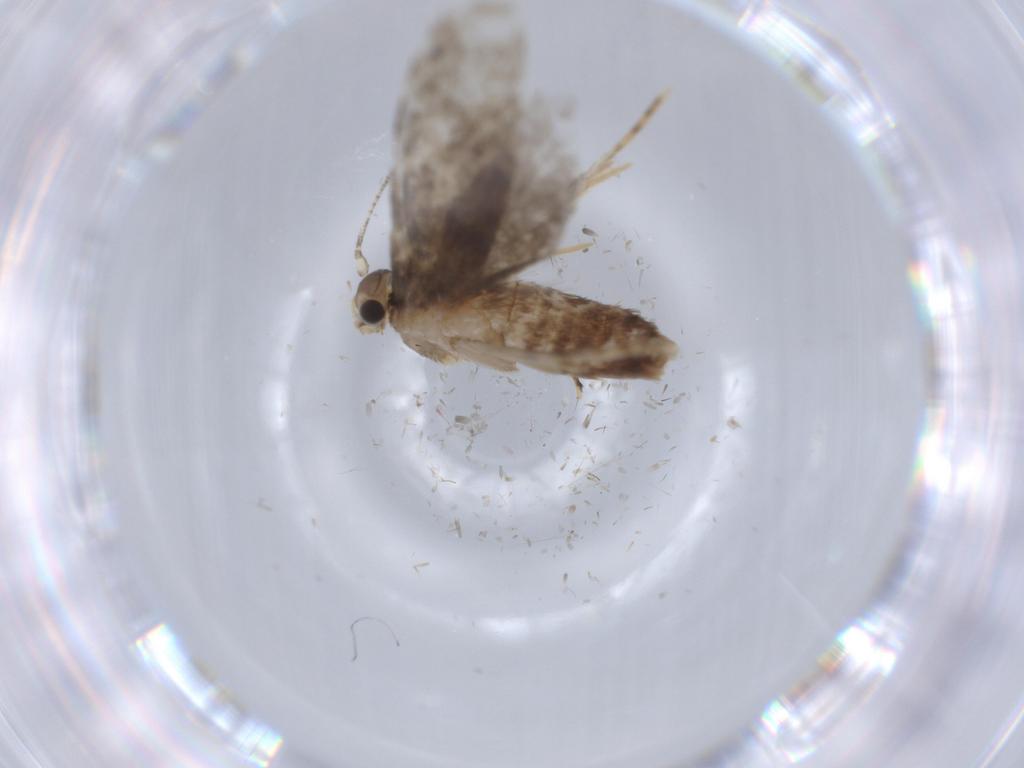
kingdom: Animalia
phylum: Arthropoda
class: Insecta
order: Lepidoptera
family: Tineidae
